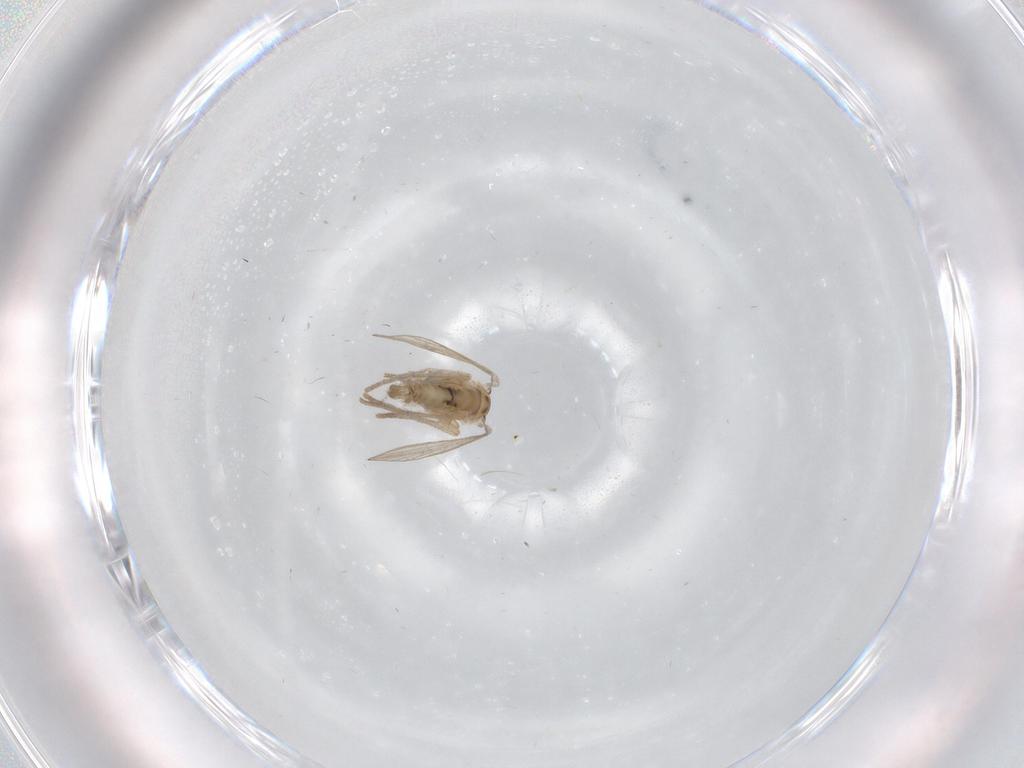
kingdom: Animalia
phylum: Arthropoda
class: Insecta
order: Diptera
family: Psychodidae
